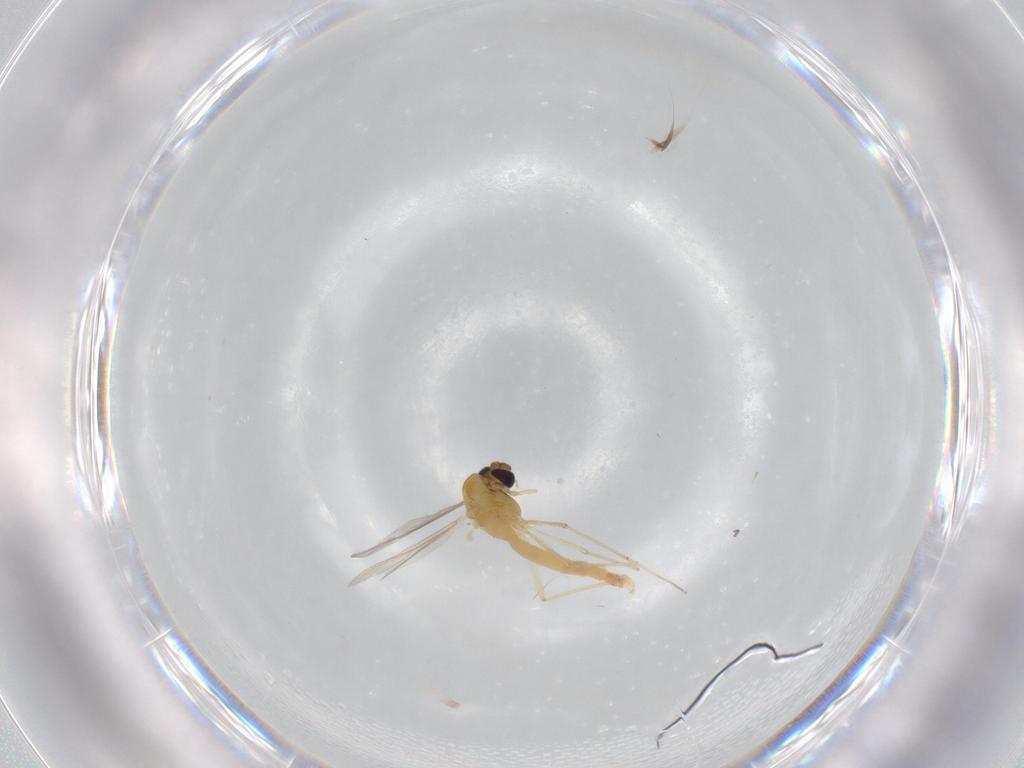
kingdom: Animalia
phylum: Arthropoda
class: Insecta
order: Diptera
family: Chironomidae
